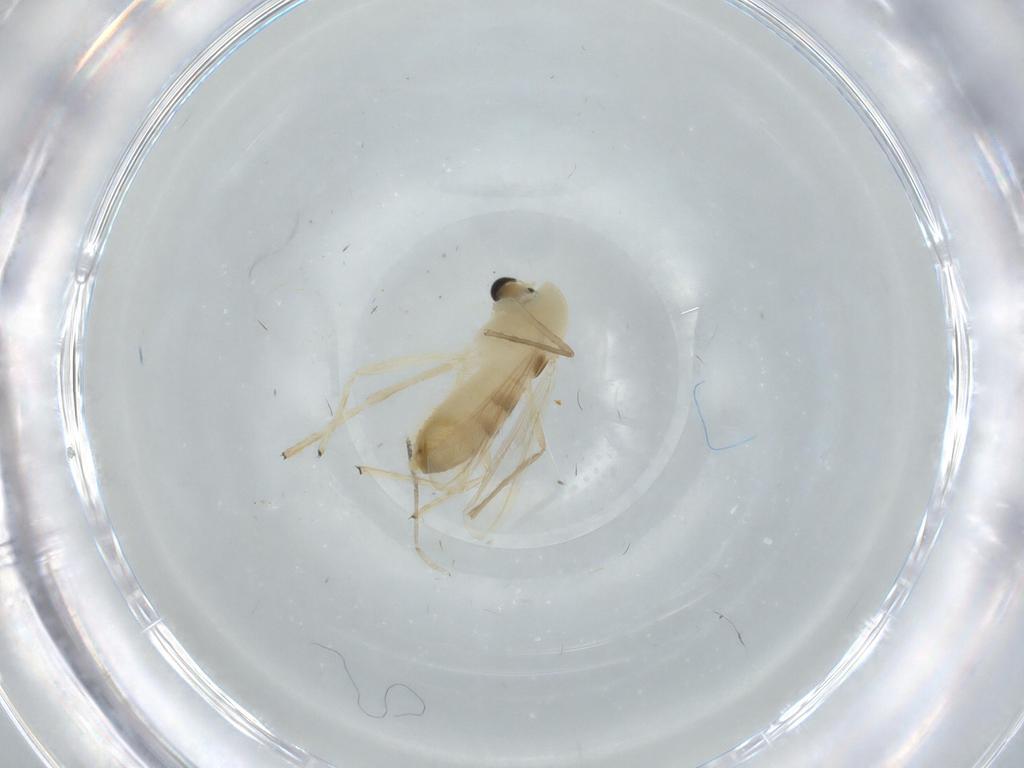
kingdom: Animalia
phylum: Arthropoda
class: Insecta
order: Diptera
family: Chironomidae
